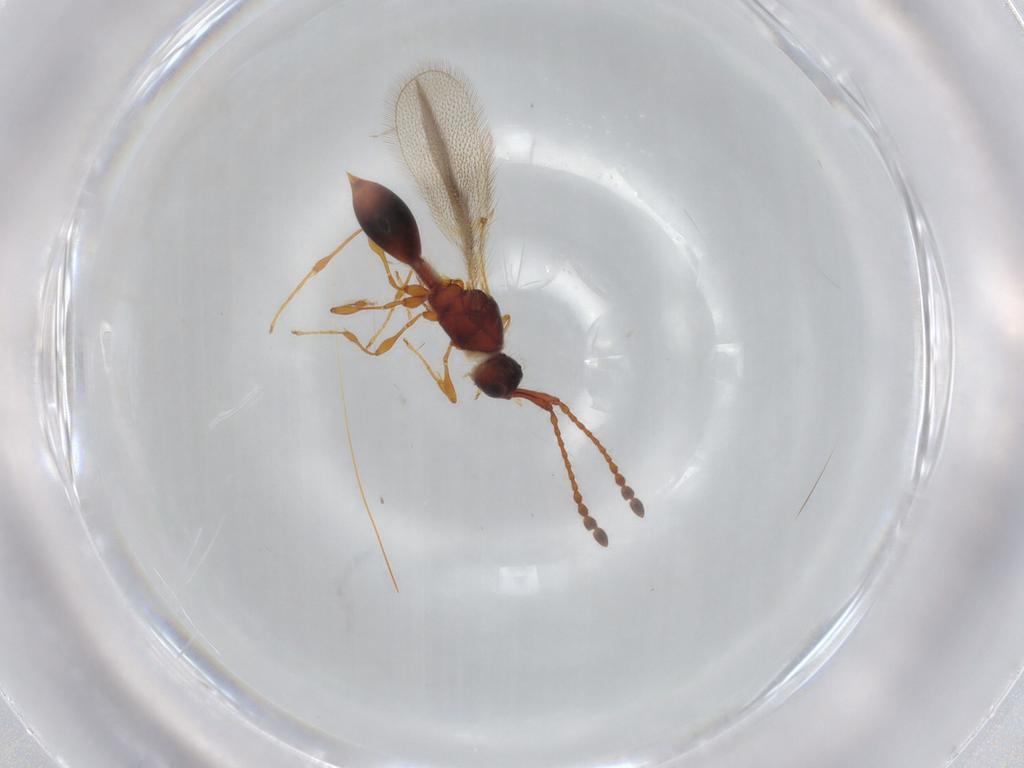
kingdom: Animalia
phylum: Arthropoda
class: Insecta
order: Hymenoptera
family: Diapriidae
